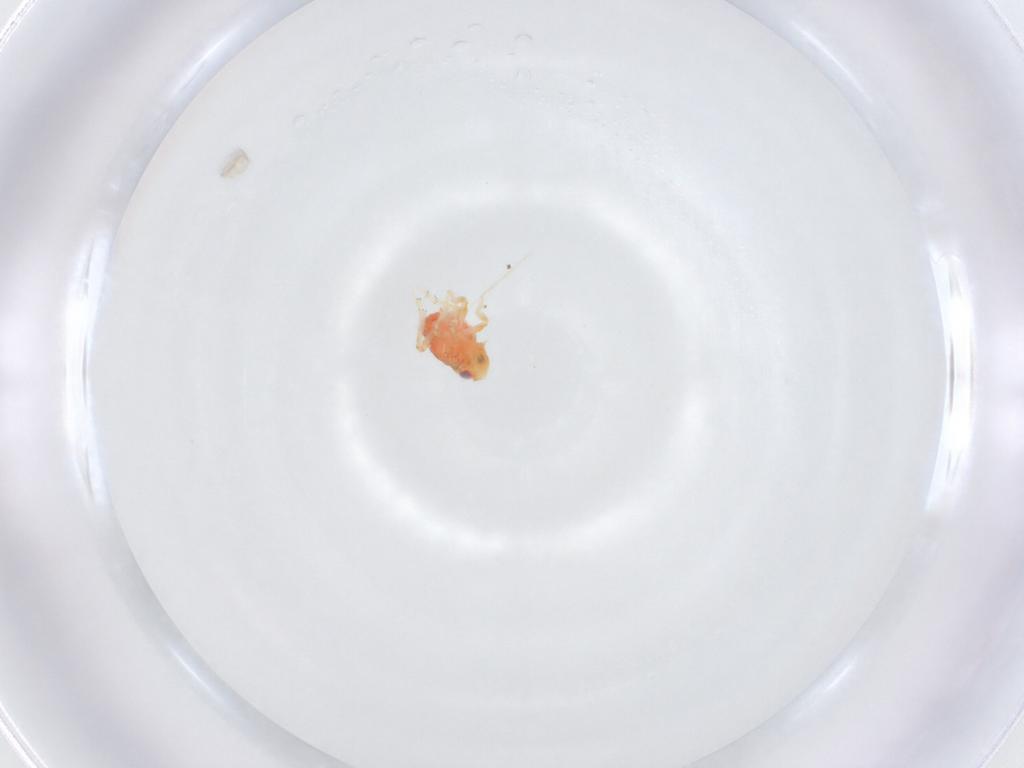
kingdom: Animalia
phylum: Arthropoda
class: Insecta
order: Hemiptera
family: Issidae
